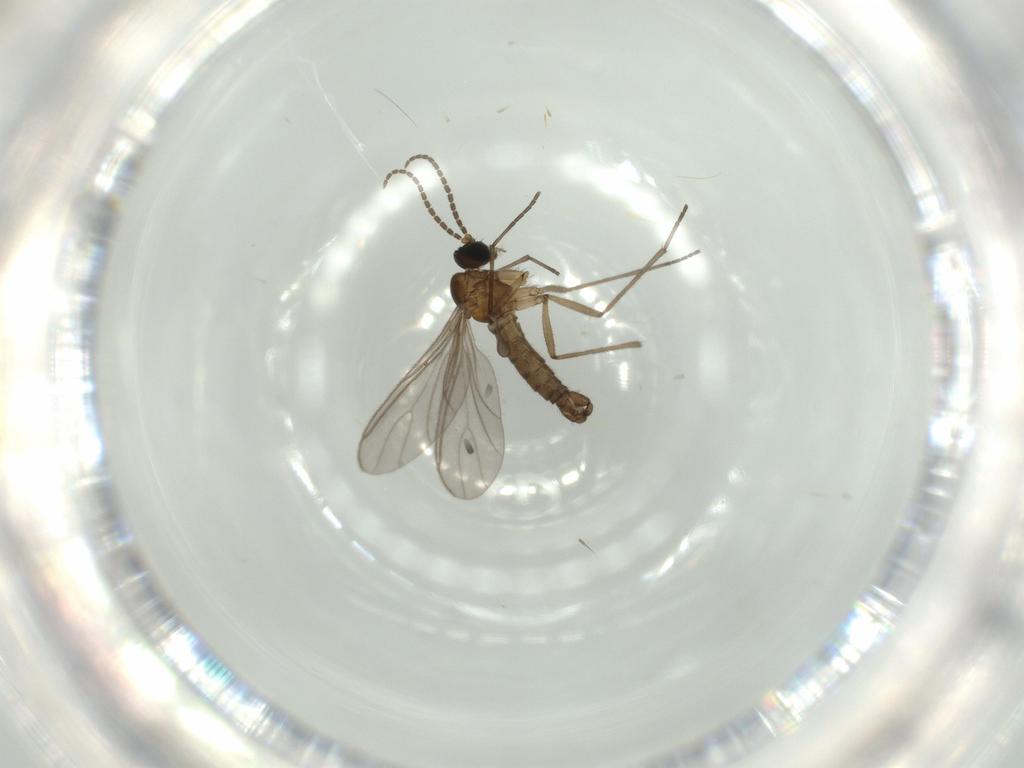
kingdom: Animalia
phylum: Arthropoda
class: Insecta
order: Diptera
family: Sciaridae
